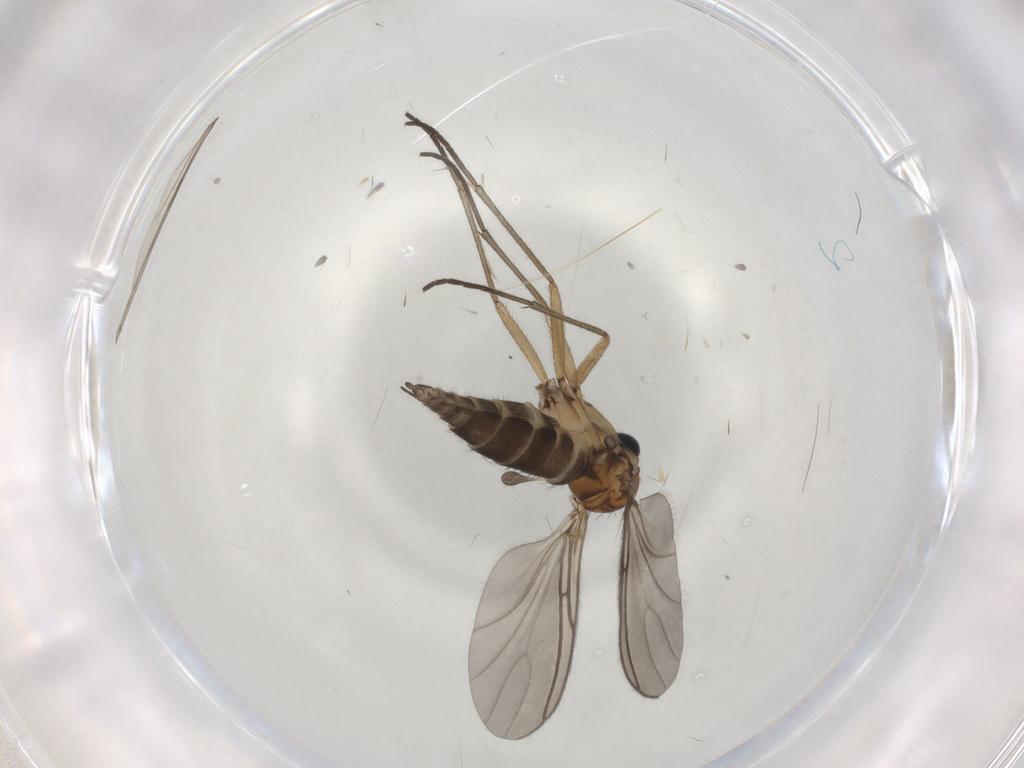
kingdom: Animalia
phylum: Arthropoda
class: Insecta
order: Diptera
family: Sciaridae
